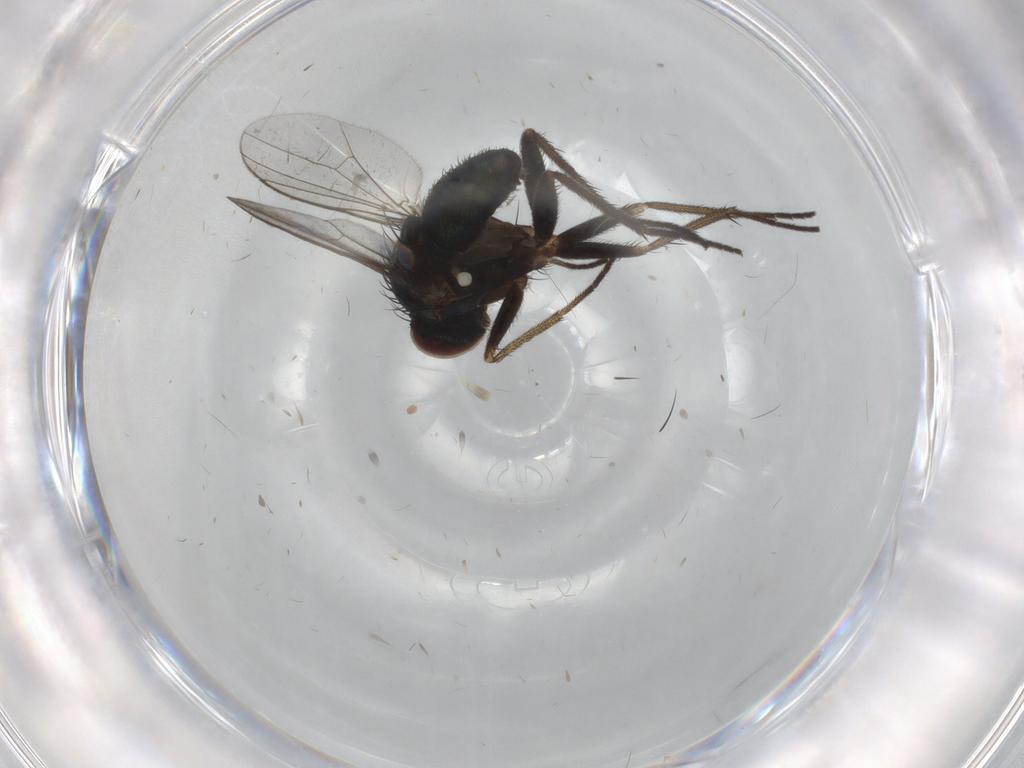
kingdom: Animalia
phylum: Arthropoda
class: Insecta
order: Diptera
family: Dolichopodidae
